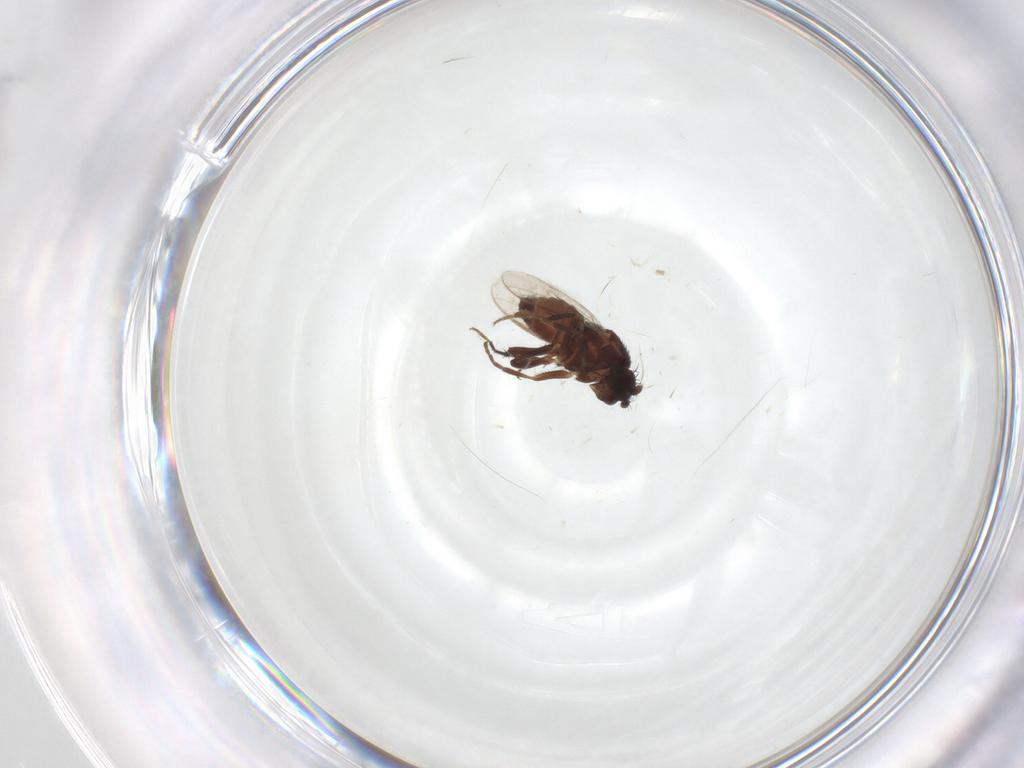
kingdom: Animalia
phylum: Arthropoda
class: Insecta
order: Diptera
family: Sphaeroceridae
